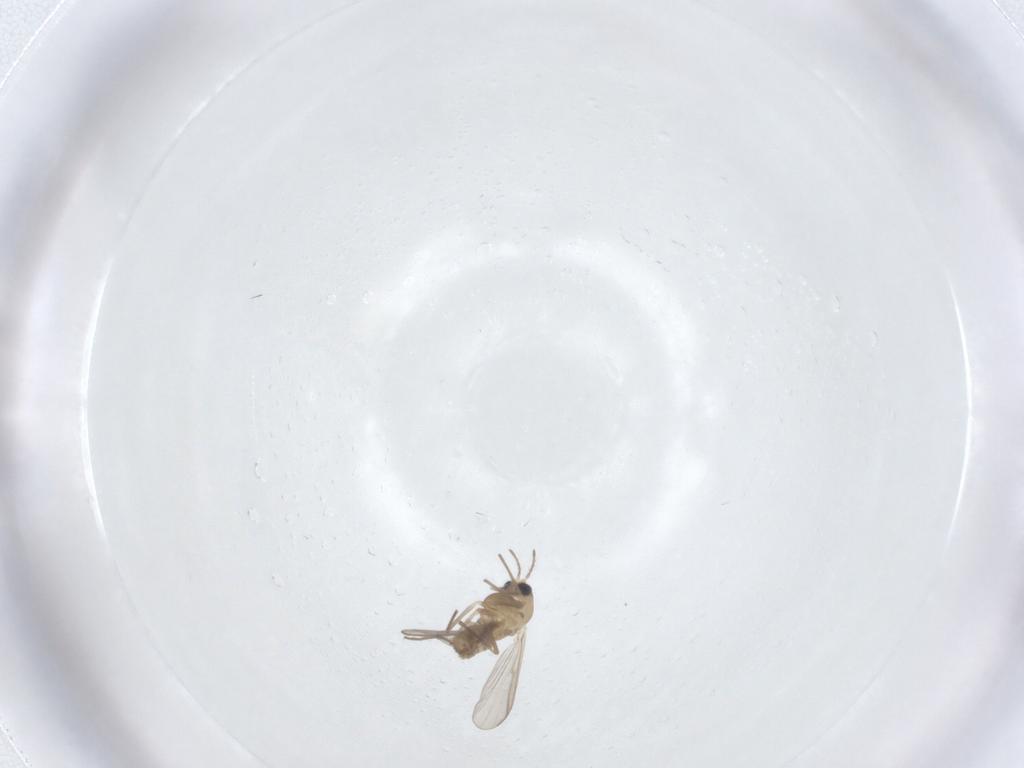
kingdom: Animalia
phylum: Arthropoda
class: Insecta
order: Diptera
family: Chironomidae
